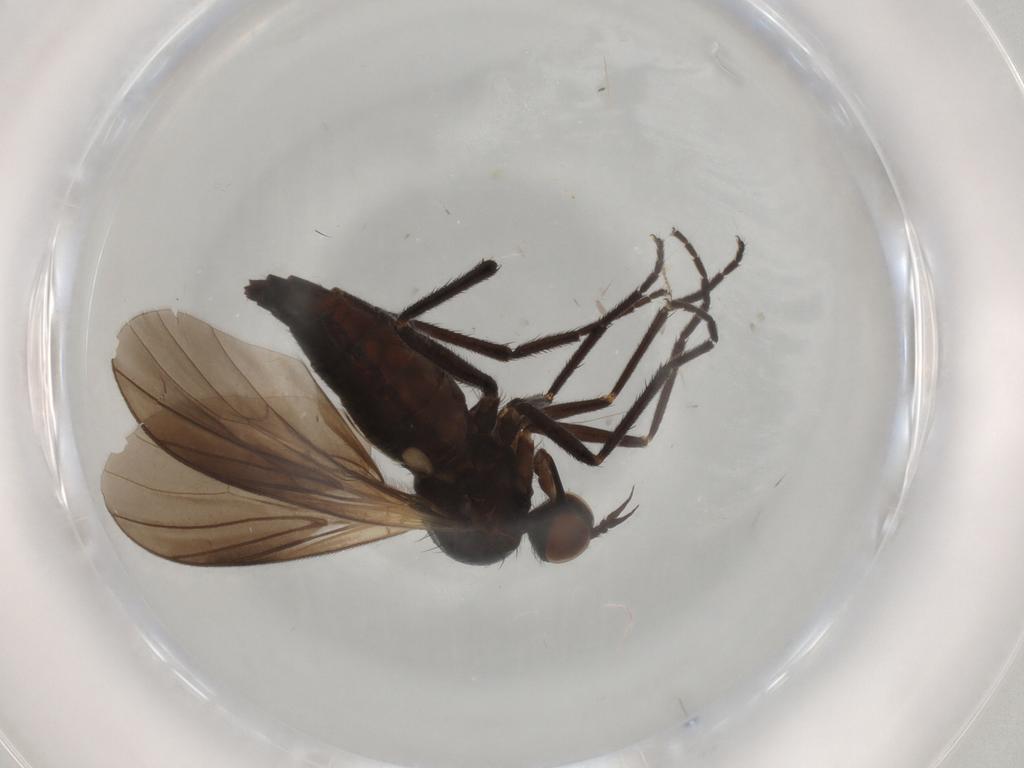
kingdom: Animalia
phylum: Arthropoda
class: Insecta
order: Diptera
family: Empididae
